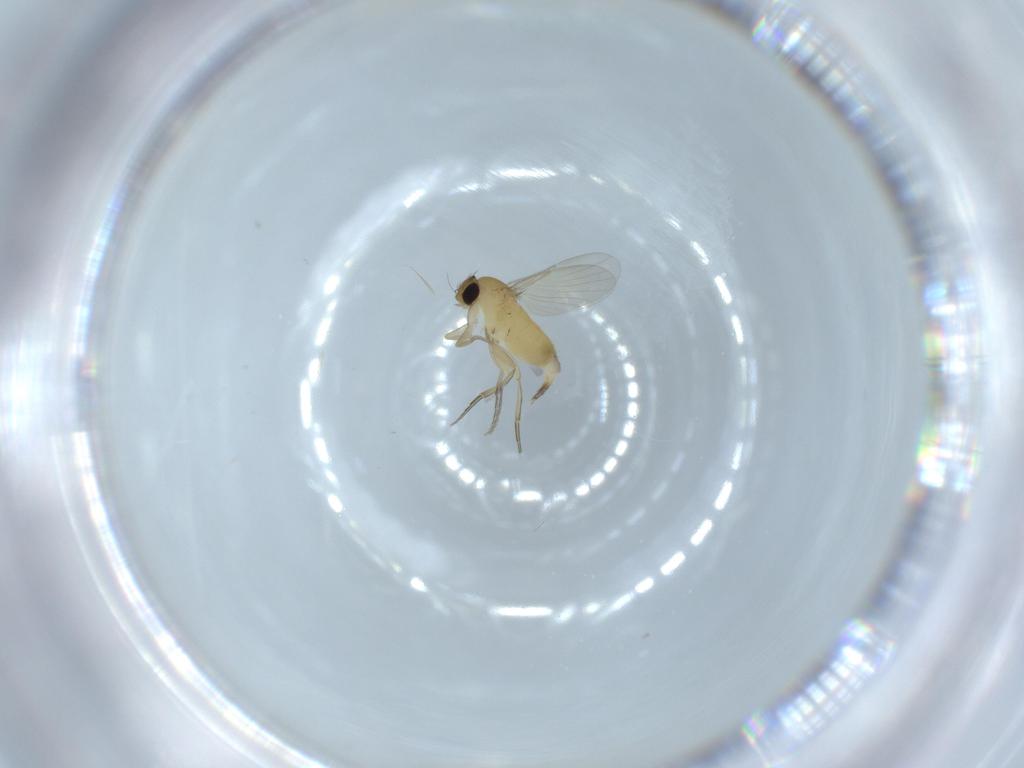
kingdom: Animalia
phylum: Arthropoda
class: Insecta
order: Diptera
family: Phoridae
